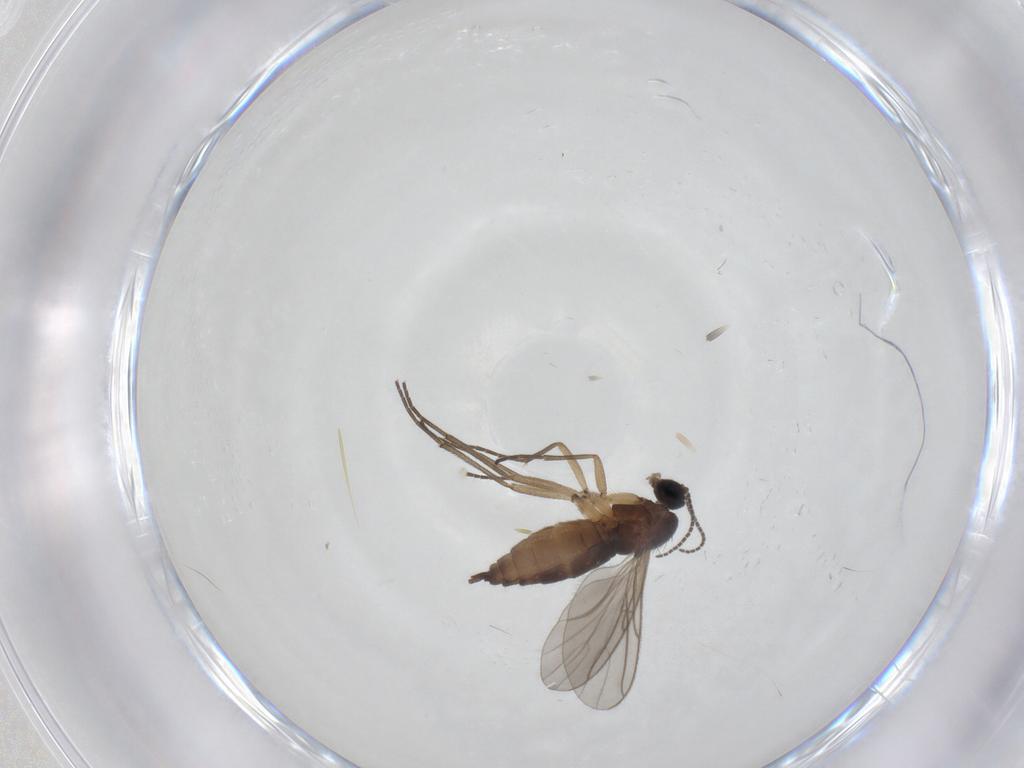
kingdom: Animalia
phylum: Arthropoda
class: Insecta
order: Diptera
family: Sciaridae
